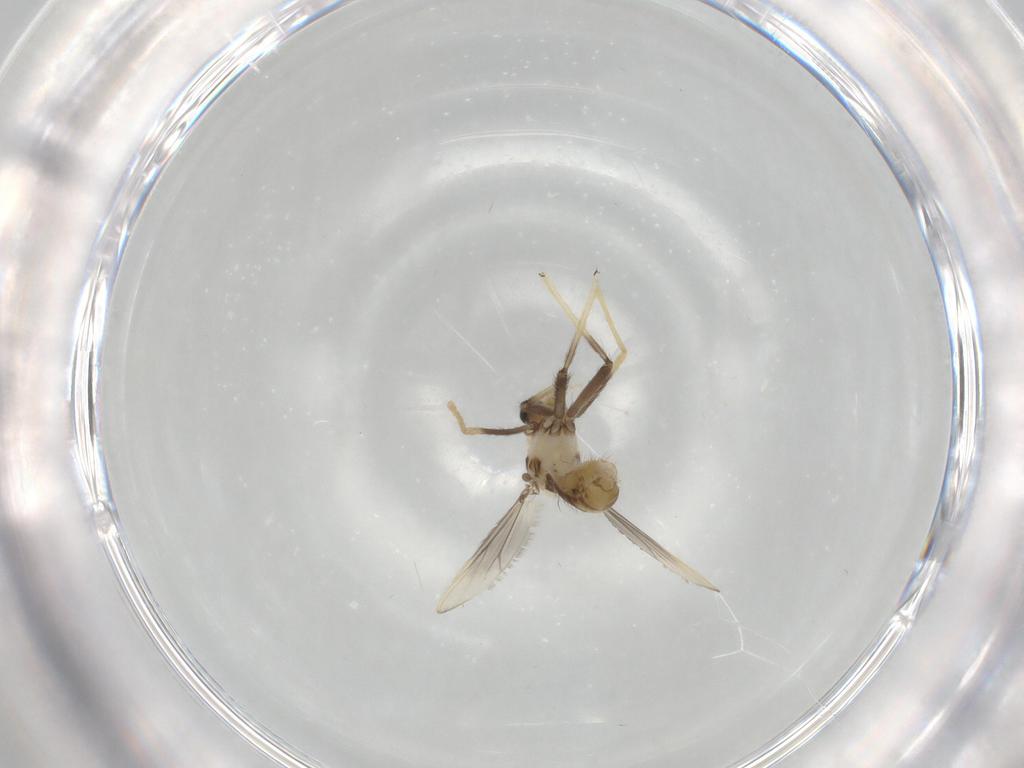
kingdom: Animalia
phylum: Arthropoda
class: Insecta
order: Diptera
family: Chironomidae
